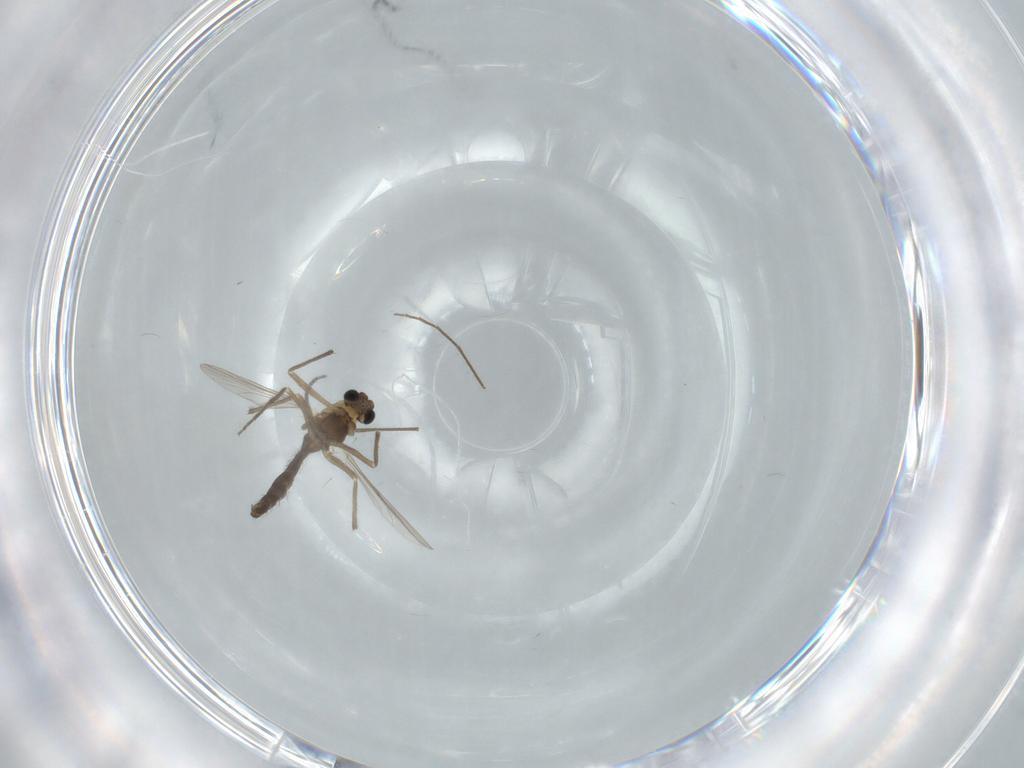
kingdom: Animalia
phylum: Arthropoda
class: Insecta
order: Diptera
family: Chironomidae
